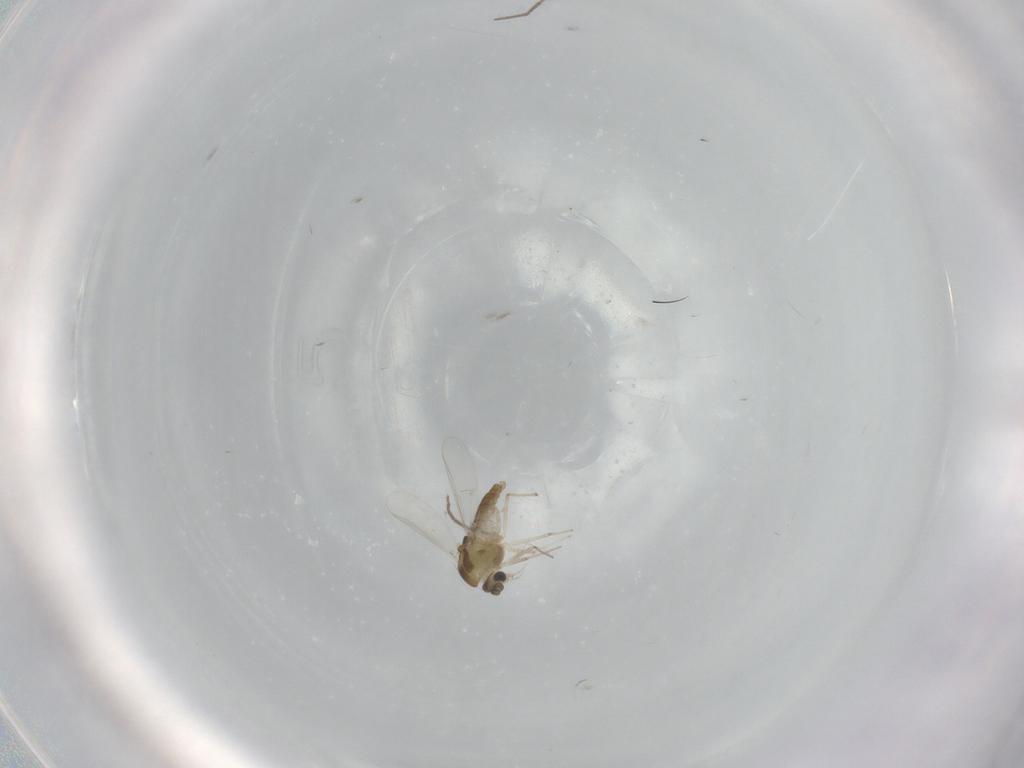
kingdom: Animalia
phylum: Arthropoda
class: Insecta
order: Diptera
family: Chironomidae
